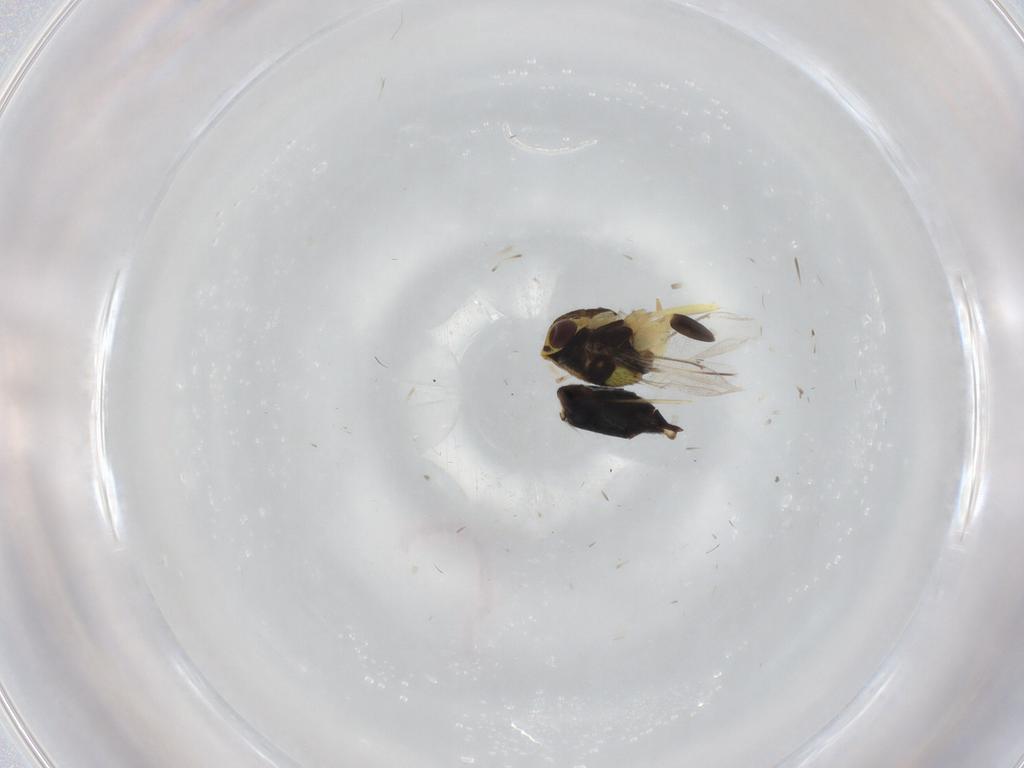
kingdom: Animalia
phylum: Arthropoda
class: Insecta
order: Hymenoptera
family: Aphelinidae
